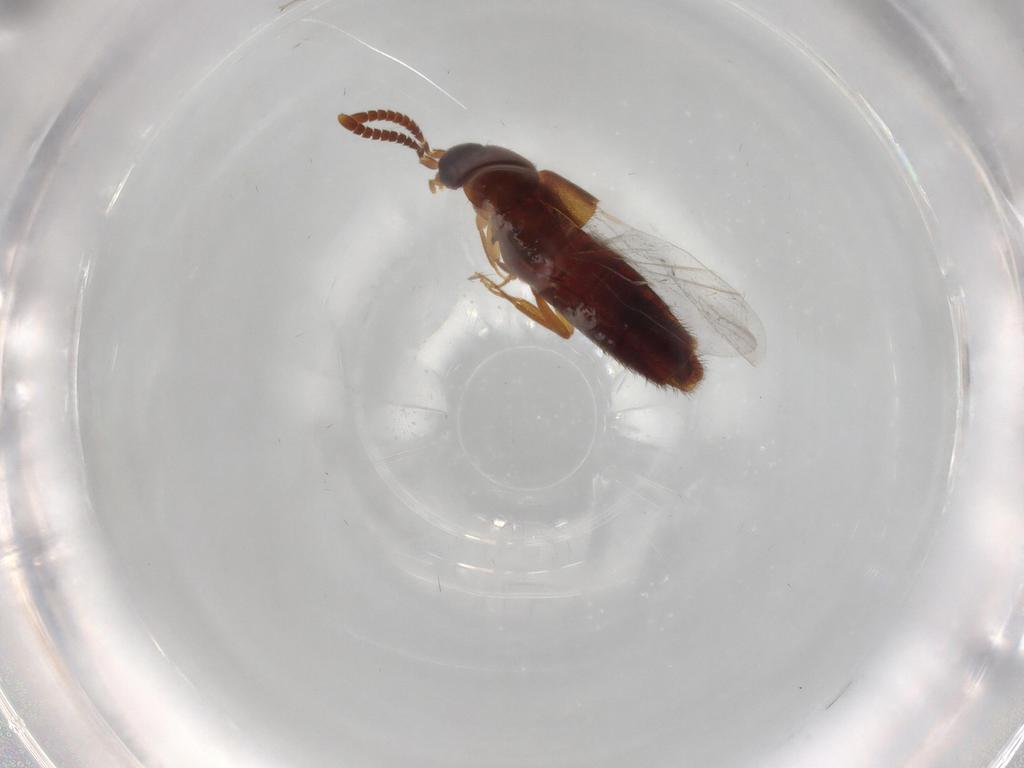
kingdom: Animalia
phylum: Arthropoda
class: Insecta
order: Coleoptera
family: Staphylinidae
